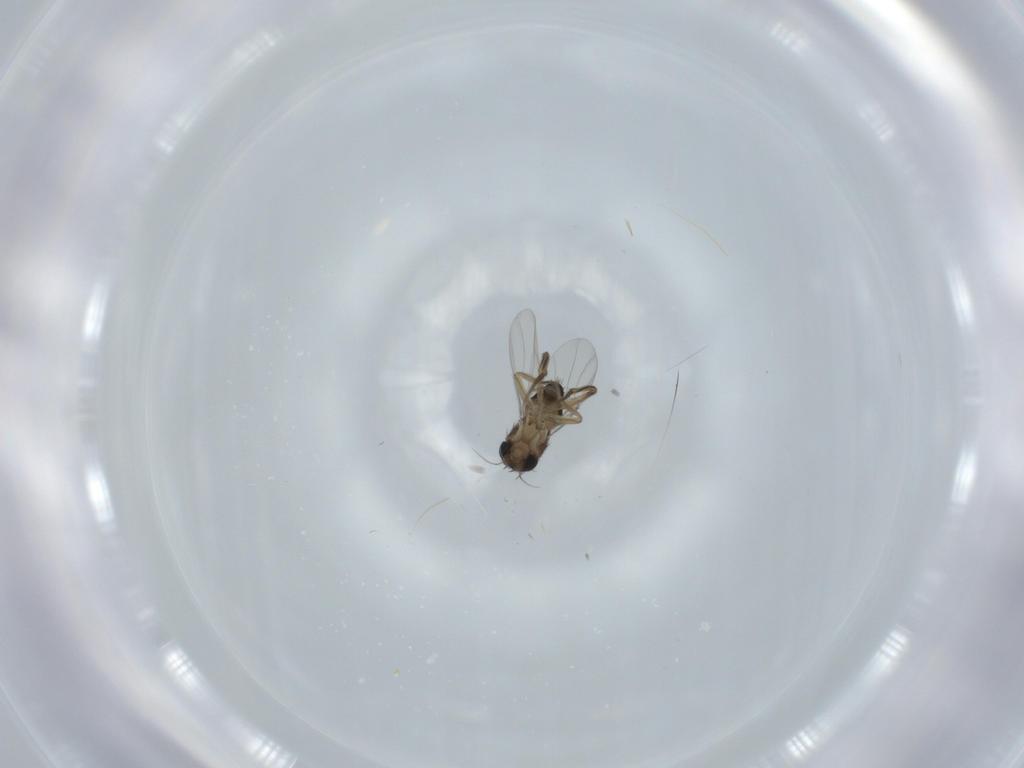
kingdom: Animalia
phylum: Arthropoda
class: Insecta
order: Diptera
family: Phoridae
